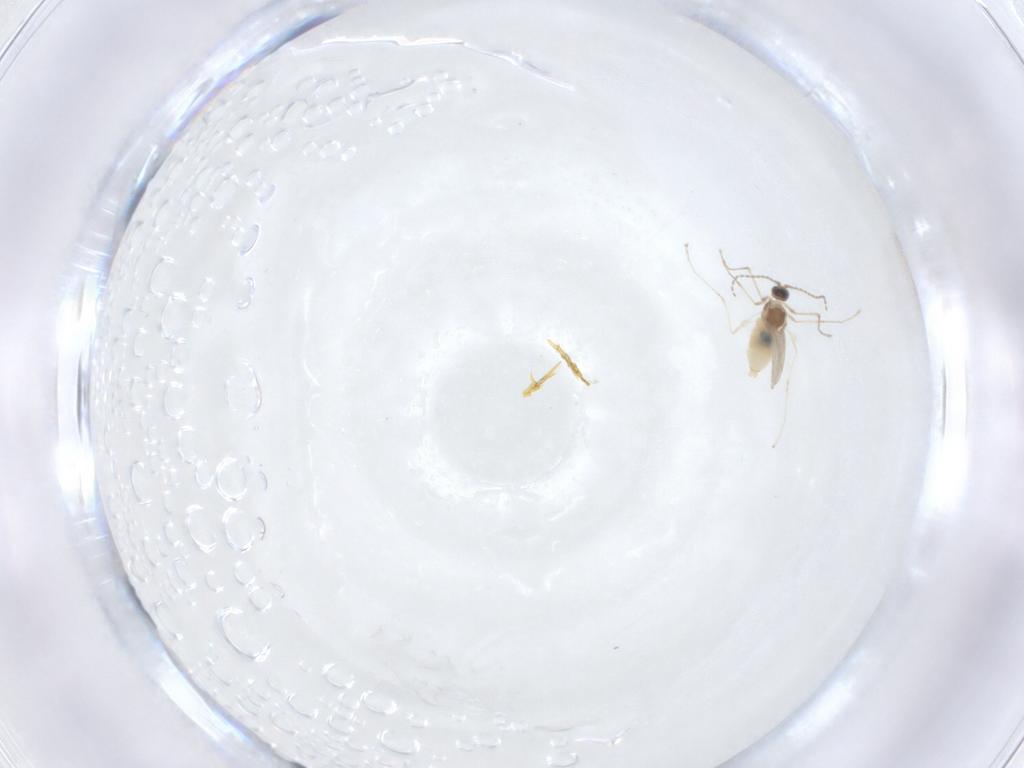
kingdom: Animalia
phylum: Arthropoda
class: Insecta
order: Diptera
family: Cecidomyiidae
